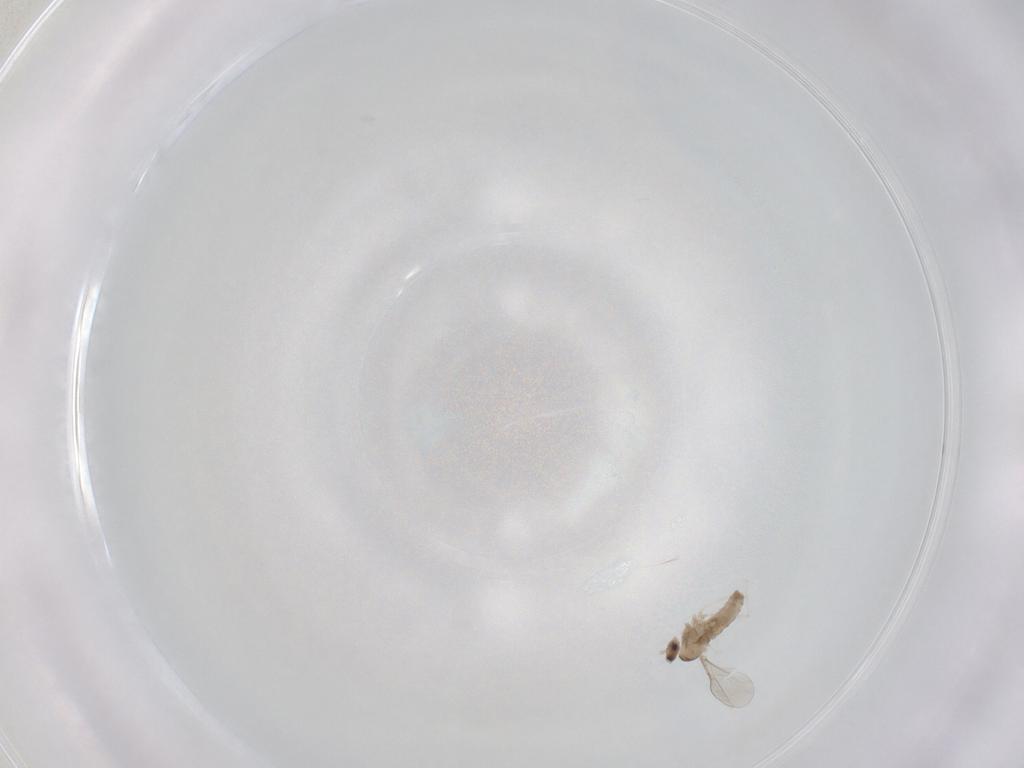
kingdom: Animalia
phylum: Arthropoda
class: Insecta
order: Diptera
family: Tachinidae
